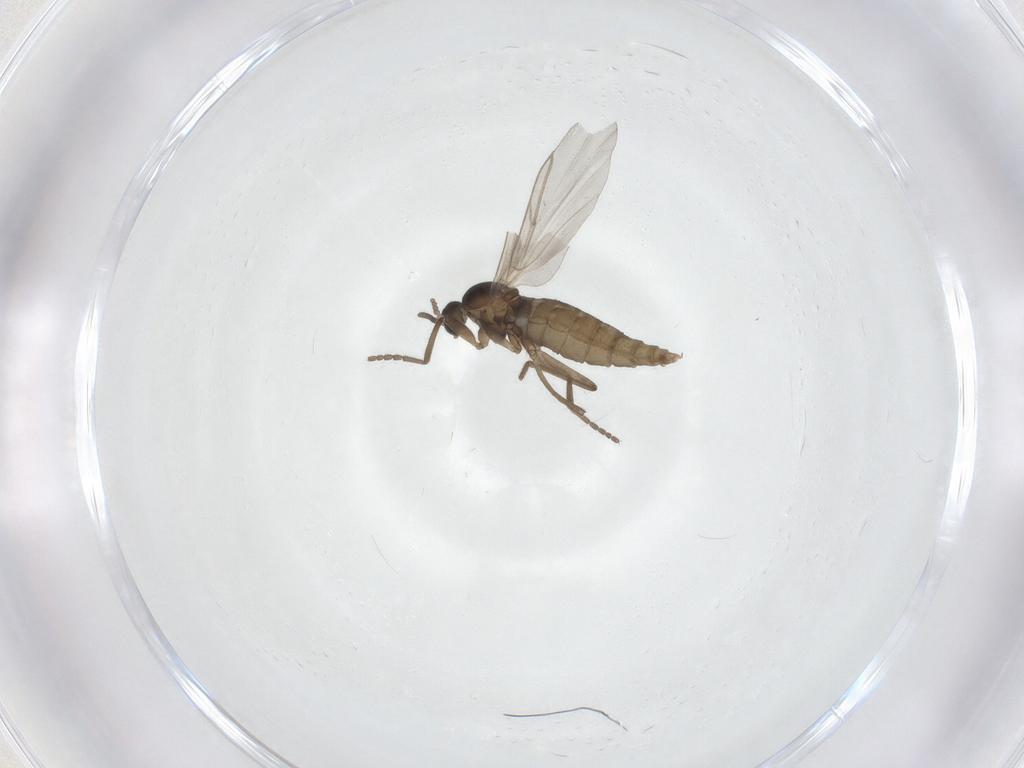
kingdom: Animalia
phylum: Arthropoda
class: Insecta
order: Diptera
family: Cecidomyiidae
